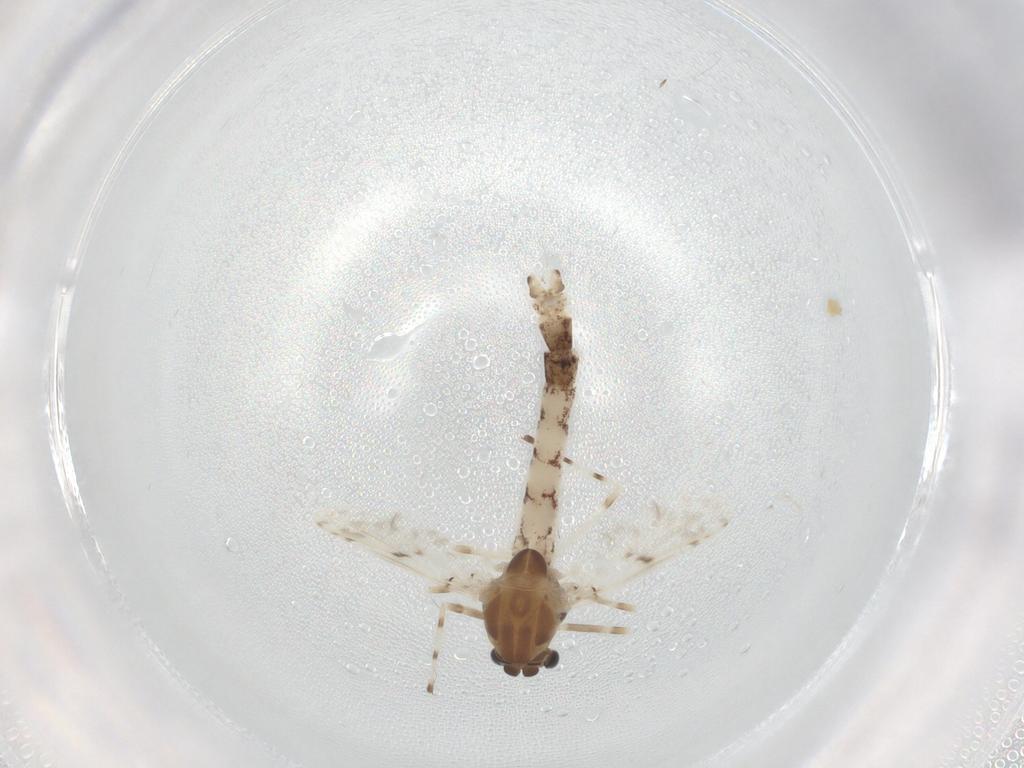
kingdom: Animalia
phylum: Arthropoda
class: Insecta
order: Diptera
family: Chironomidae
